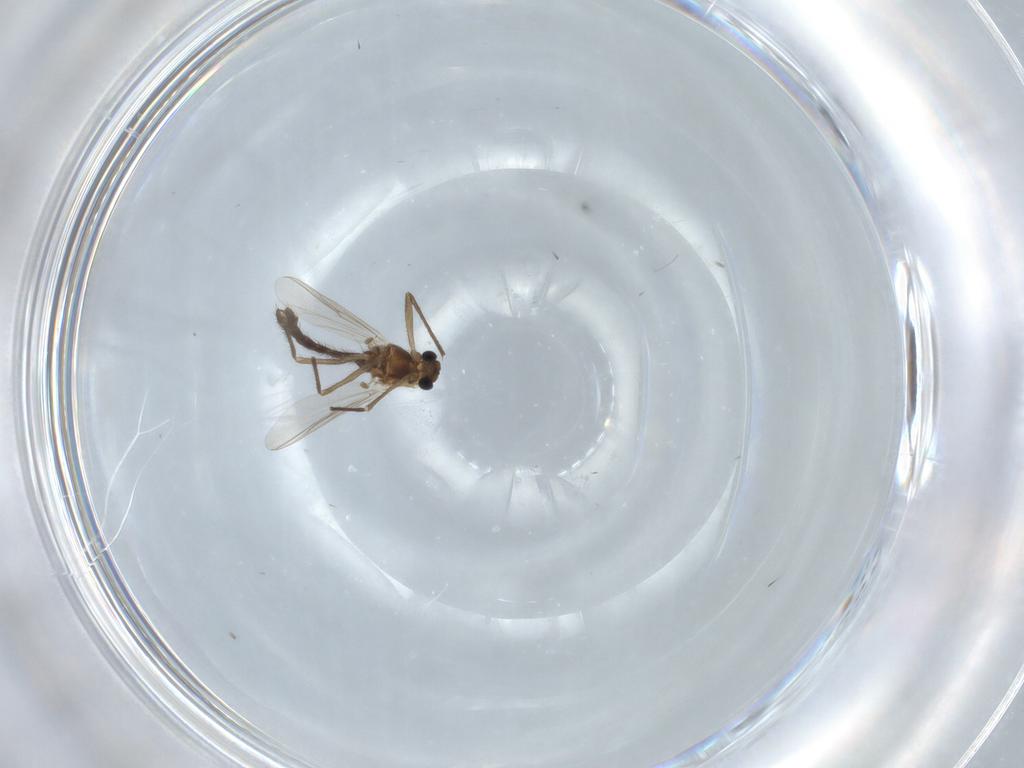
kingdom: Animalia
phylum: Arthropoda
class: Insecta
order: Diptera
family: Chironomidae
